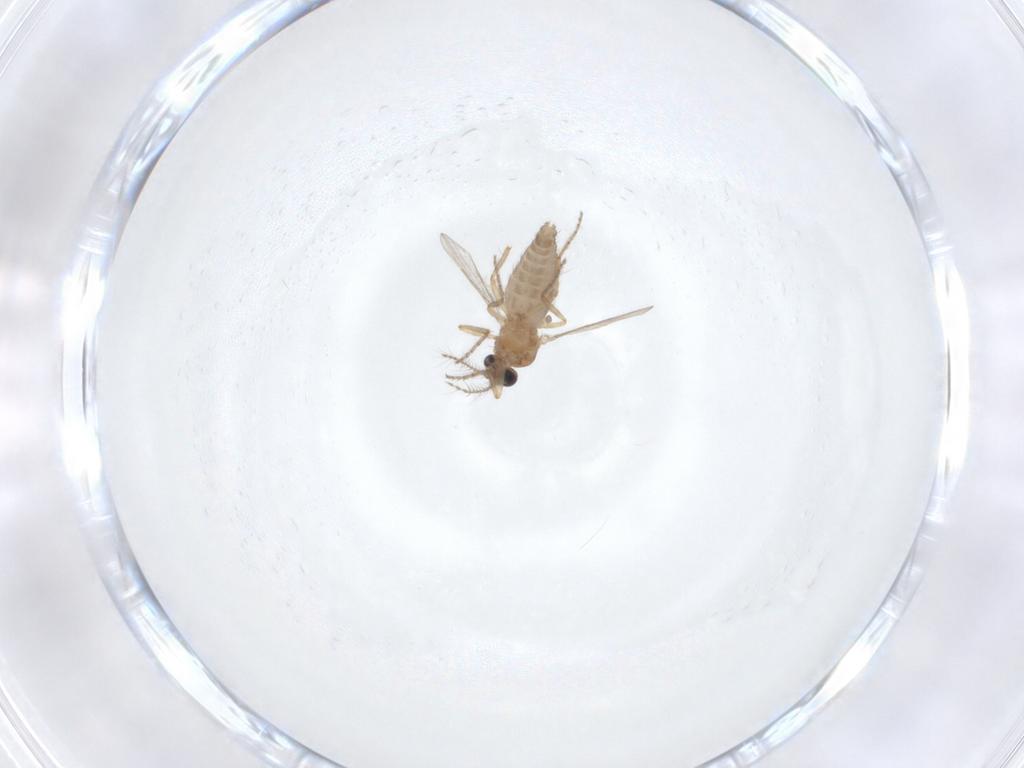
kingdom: Animalia
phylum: Arthropoda
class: Insecta
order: Diptera
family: Ceratopogonidae
